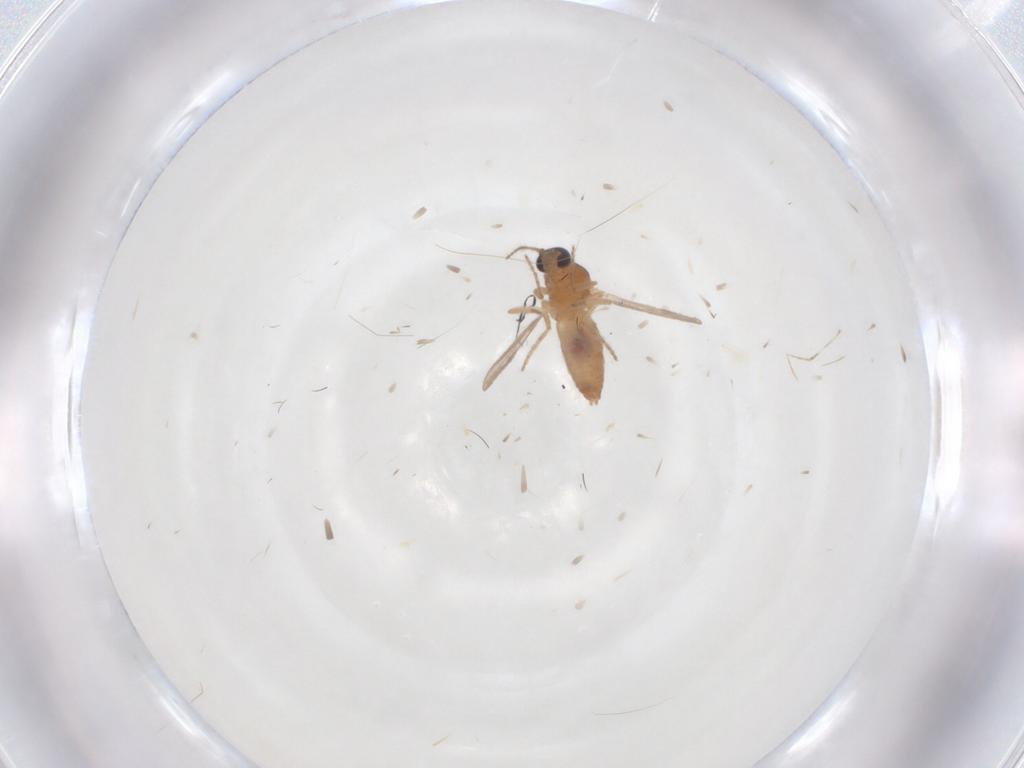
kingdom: Animalia
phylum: Arthropoda
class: Insecta
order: Diptera
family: Ceratopogonidae
